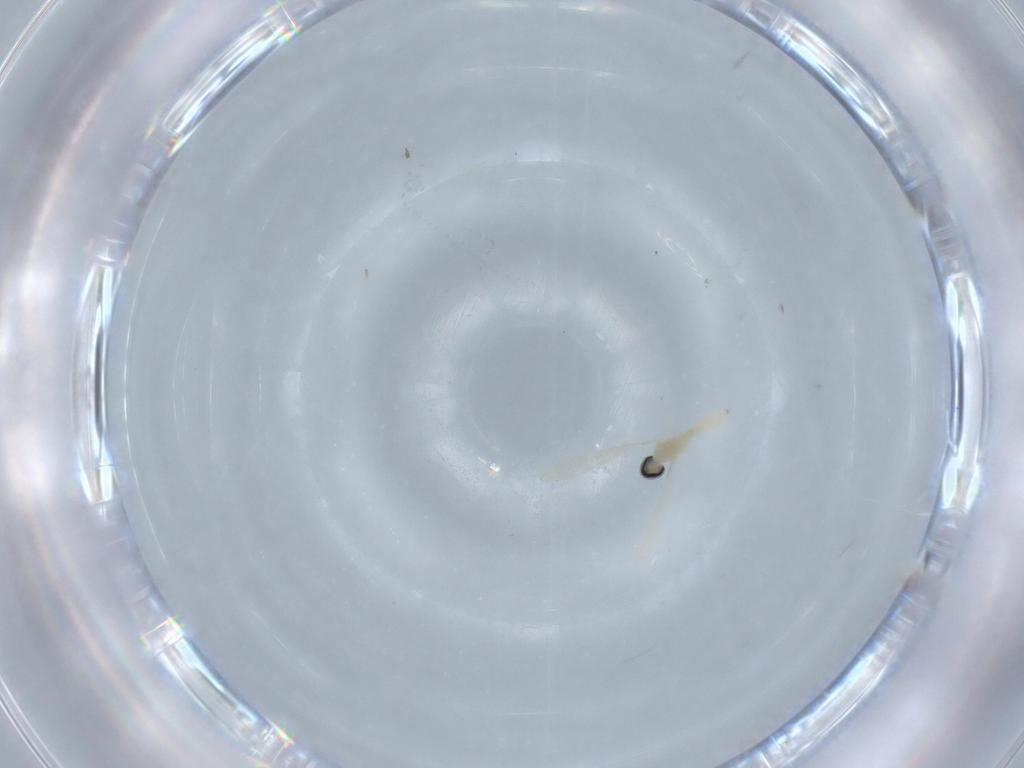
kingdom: Animalia
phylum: Arthropoda
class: Insecta
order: Diptera
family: Cecidomyiidae
